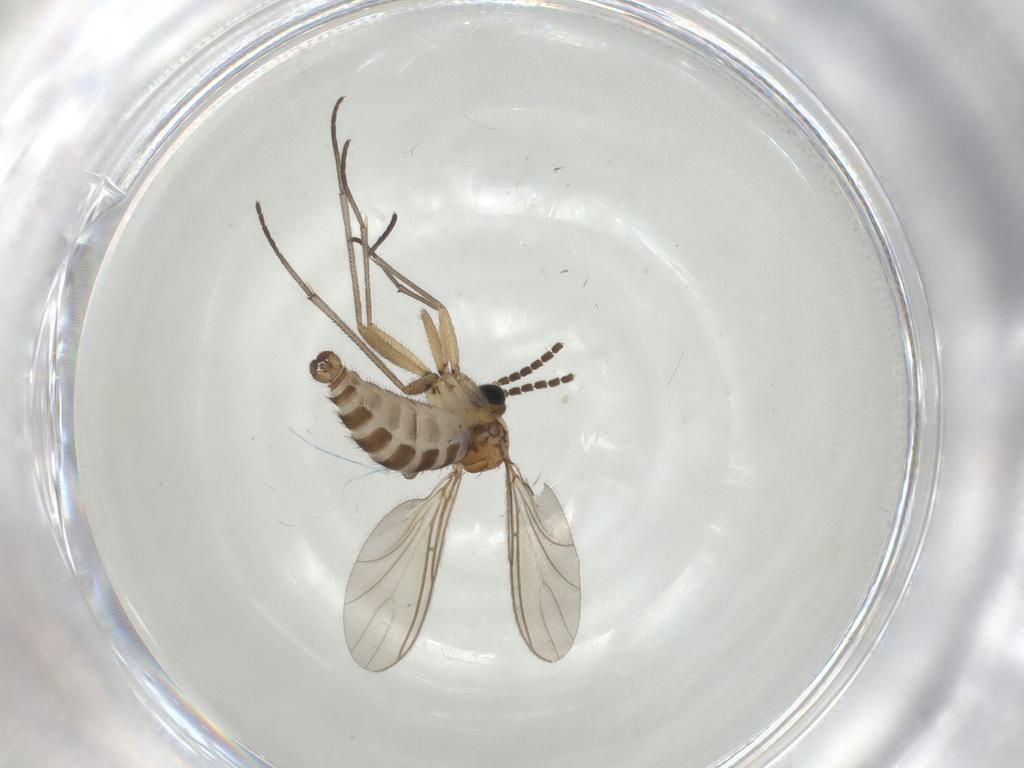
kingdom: Animalia
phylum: Arthropoda
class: Insecta
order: Diptera
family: Sciaridae
